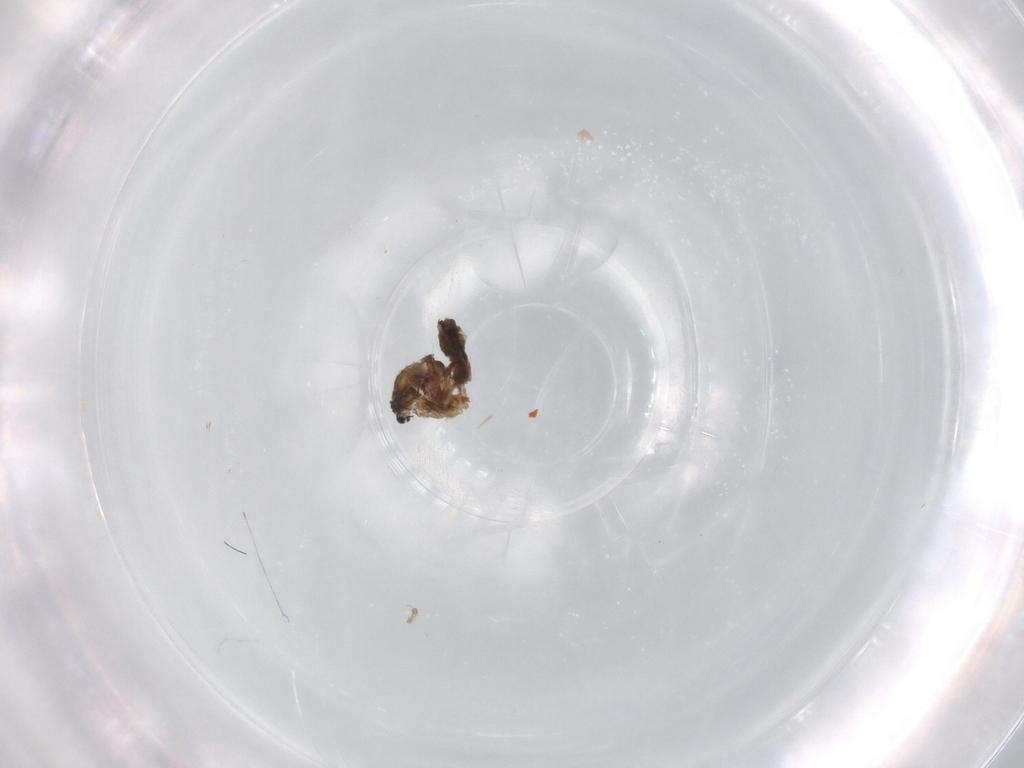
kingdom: Animalia
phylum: Arthropoda
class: Insecta
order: Diptera
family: Cecidomyiidae
